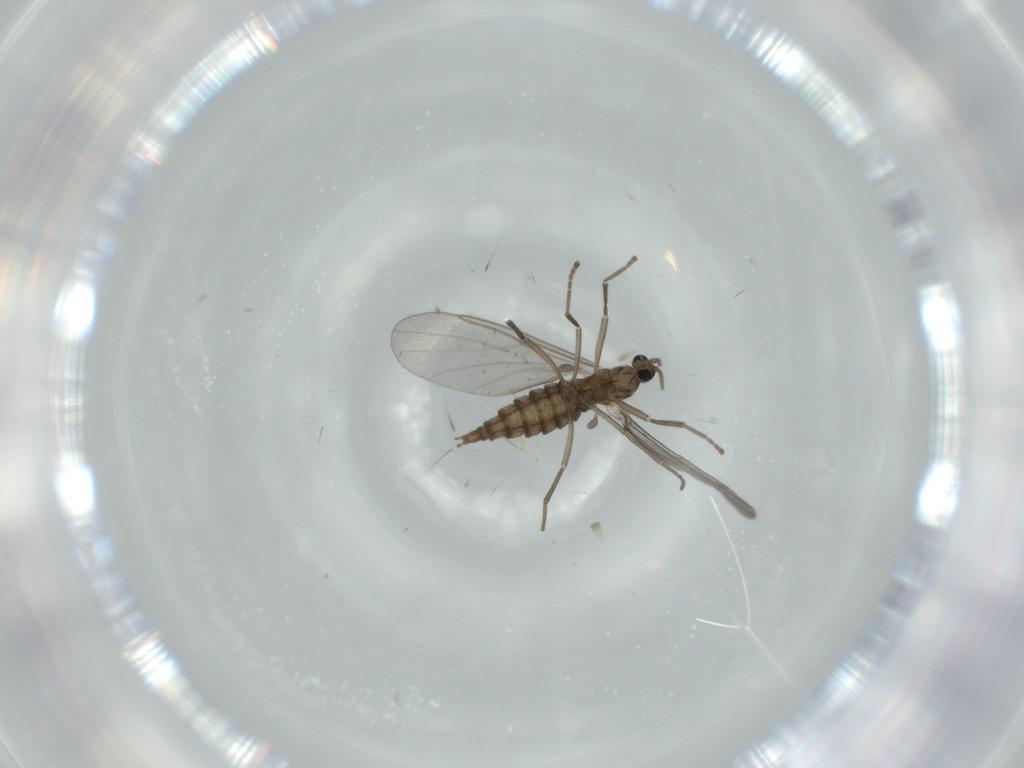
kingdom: Animalia
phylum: Arthropoda
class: Insecta
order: Diptera
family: Cecidomyiidae
